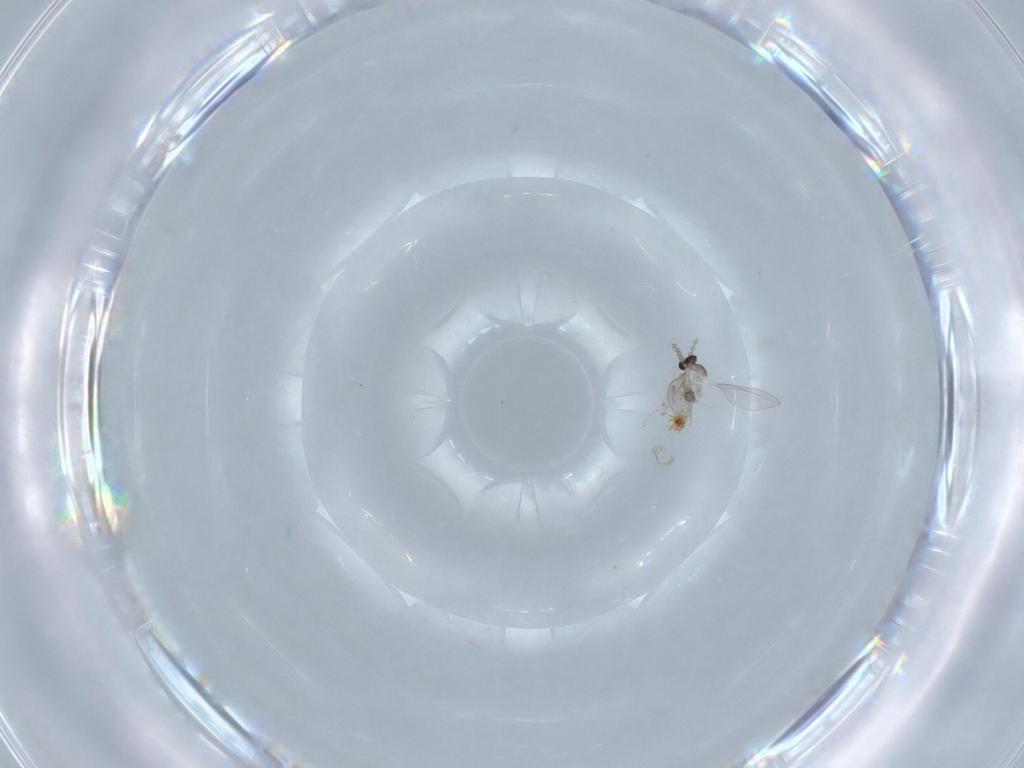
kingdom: Animalia
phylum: Arthropoda
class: Insecta
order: Diptera
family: Cecidomyiidae
